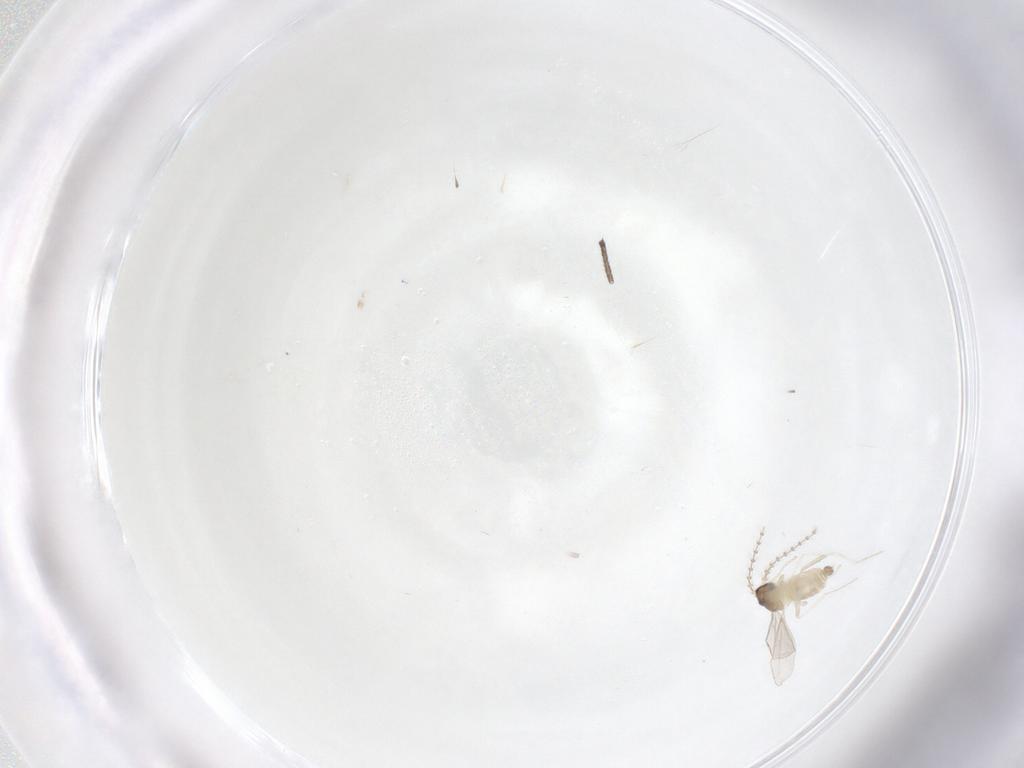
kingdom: Animalia
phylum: Arthropoda
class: Insecta
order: Diptera
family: Cecidomyiidae
